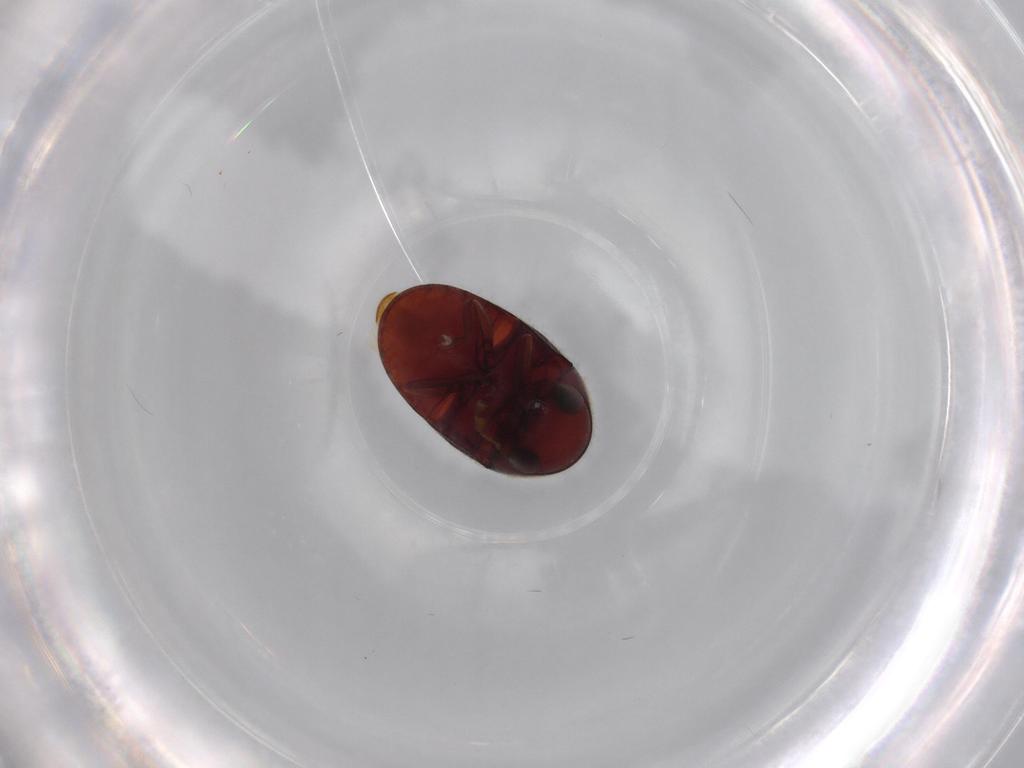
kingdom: Animalia
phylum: Arthropoda
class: Insecta
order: Coleoptera
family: Ptinidae
